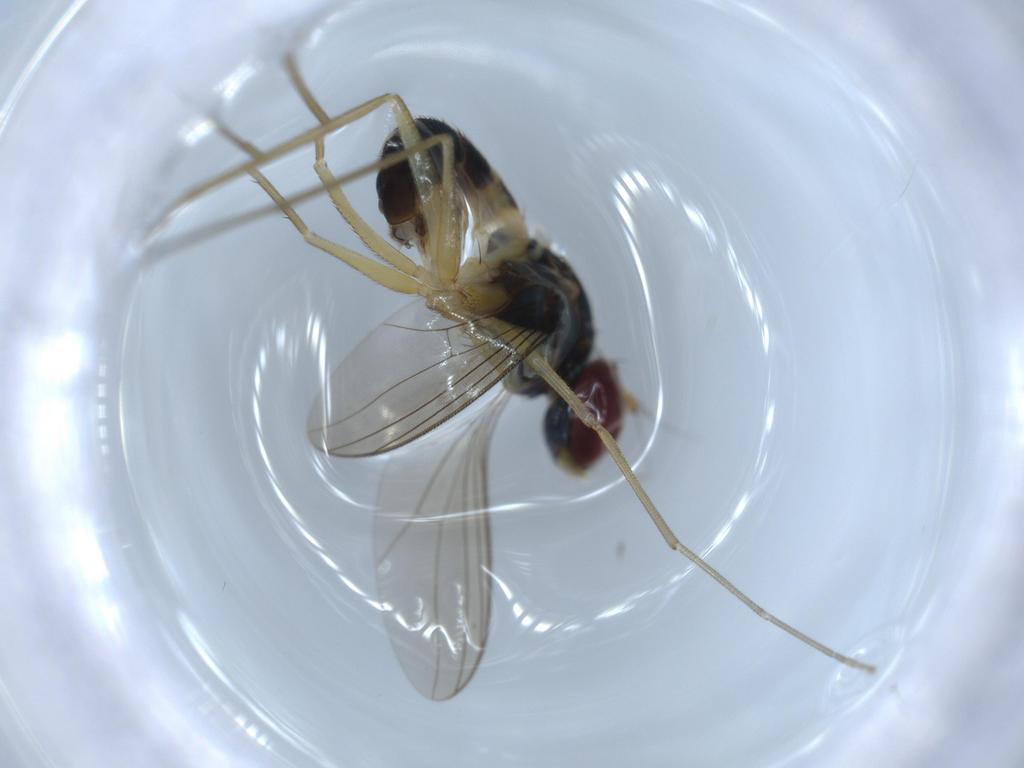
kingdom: Animalia
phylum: Arthropoda
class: Insecta
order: Diptera
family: Dolichopodidae
